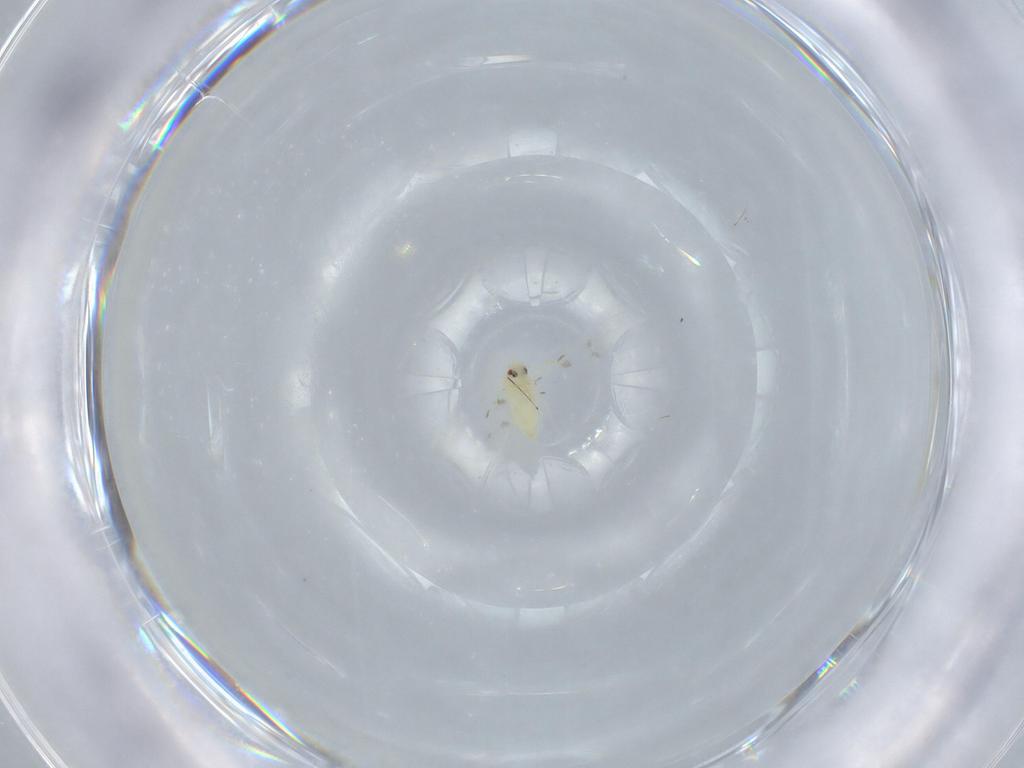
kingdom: Animalia
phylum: Arthropoda
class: Insecta
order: Hemiptera
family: Aleyrodidae
